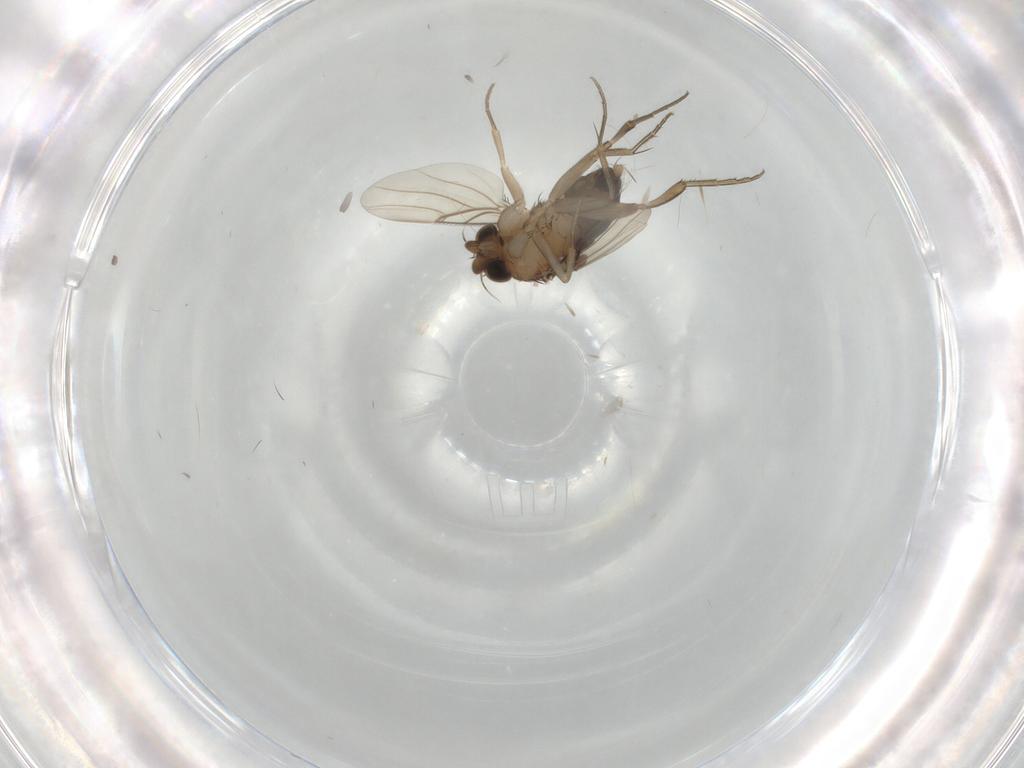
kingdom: Animalia
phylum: Arthropoda
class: Insecta
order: Diptera
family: Phoridae
